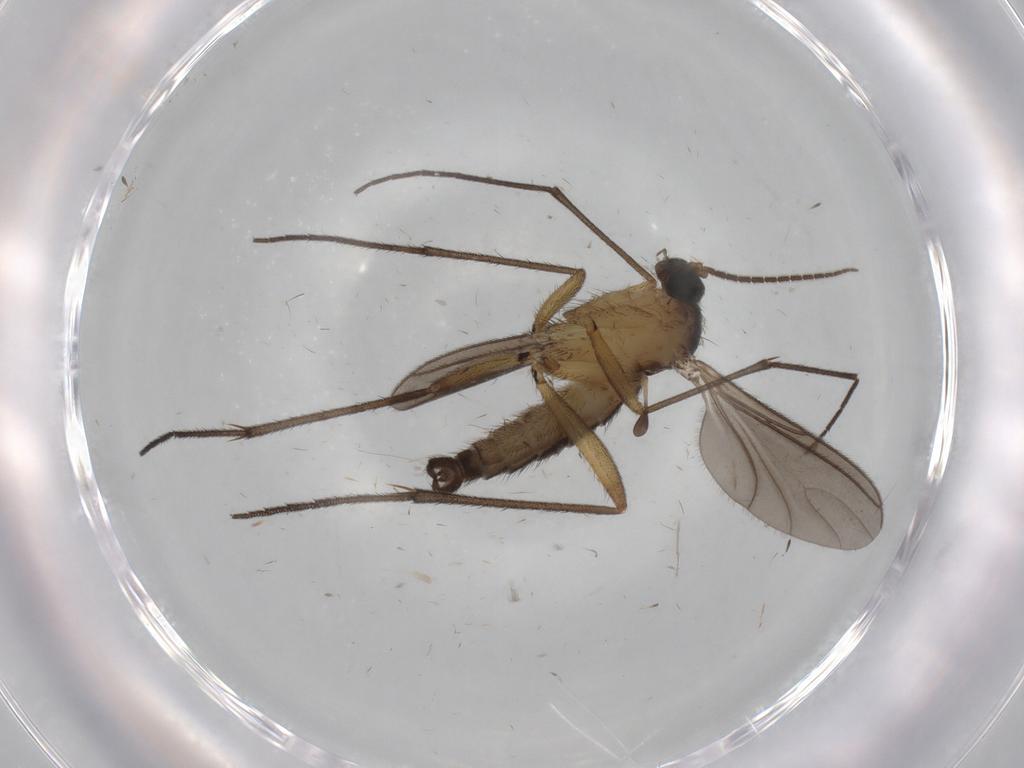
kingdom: Animalia
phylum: Arthropoda
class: Insecta
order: Diptera
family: Sciaridae
